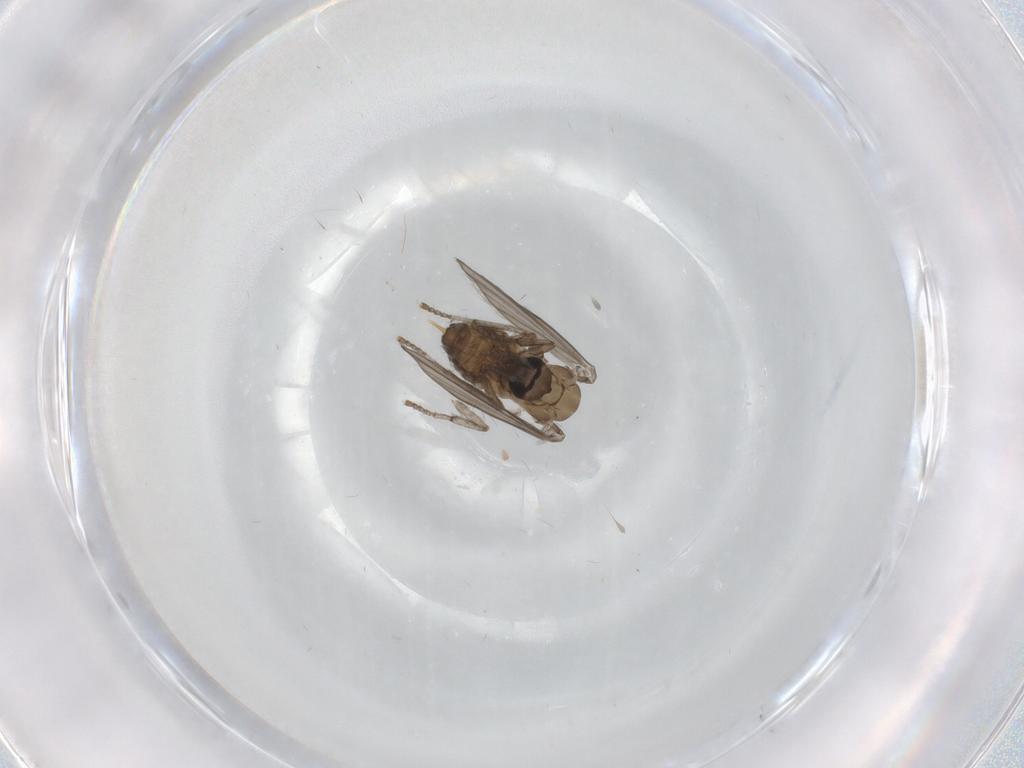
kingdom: Animalia
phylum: Arthropoda
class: Insecta
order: Diptera
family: Psychodidae
